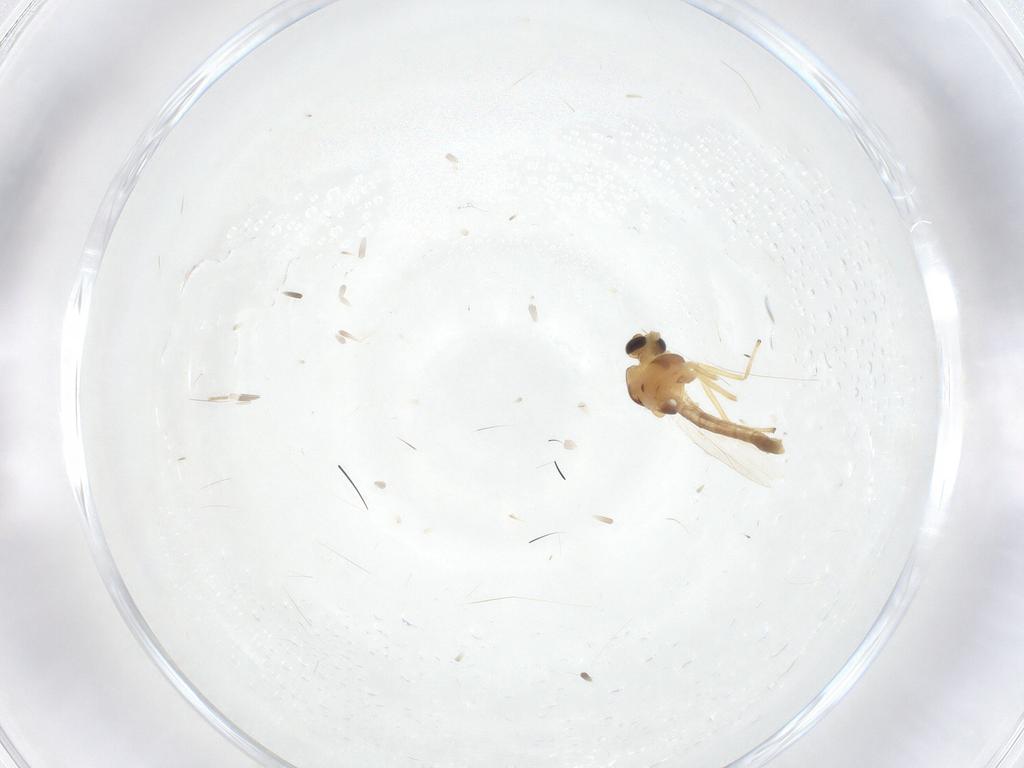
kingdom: Animalia
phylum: Arthropoda
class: Insecta
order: Diptera
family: Chironomidae
